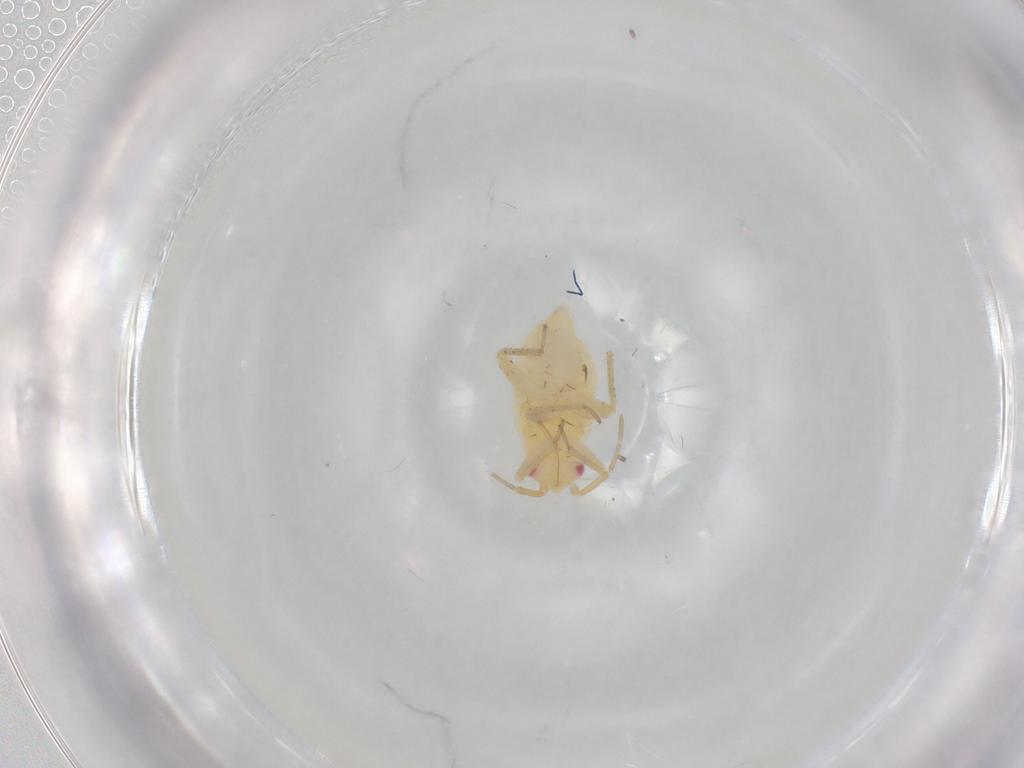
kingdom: Animalia
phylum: Arthropoda
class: Insecta
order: Hemiptera
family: Miridae
